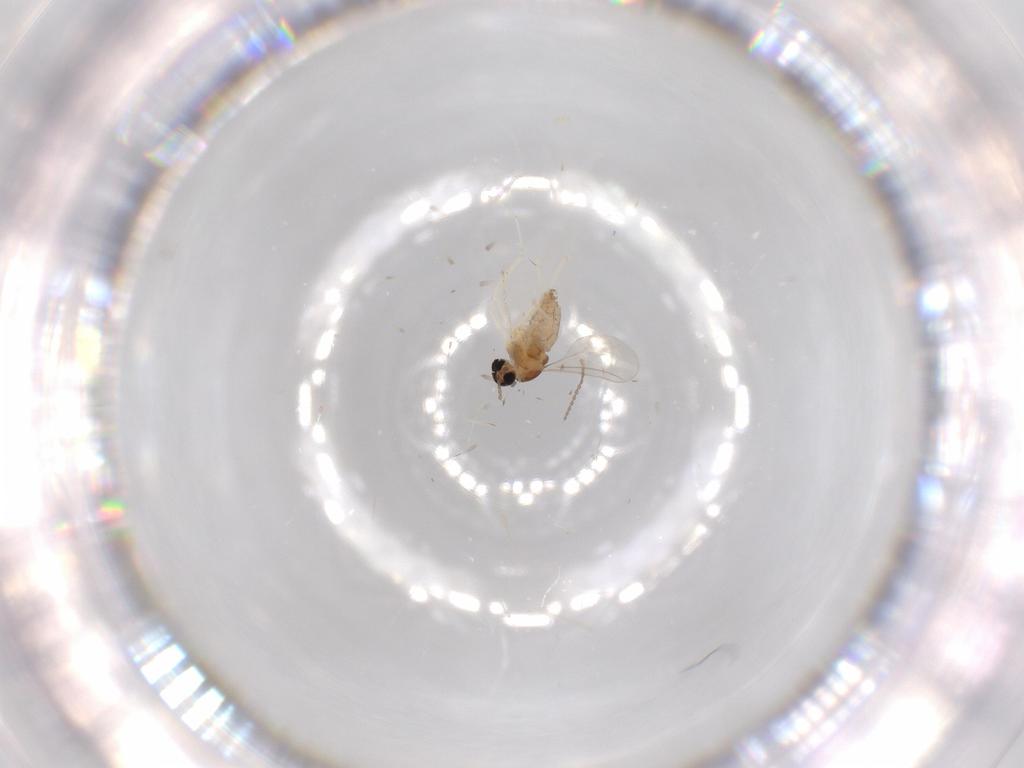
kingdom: Animalia
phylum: Arthropoda
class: Insecta
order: Diptera
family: Cecidomyiidae
